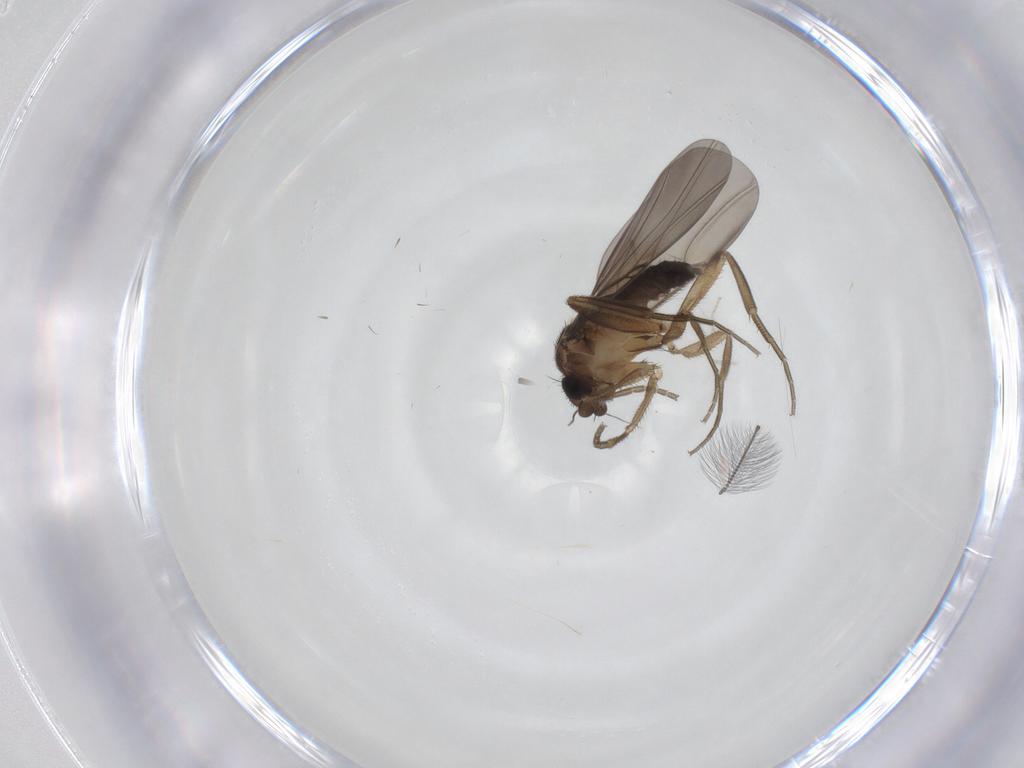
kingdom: Animalia
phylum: Arthropoda
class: Insecta
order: Diptera
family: Phoridae
